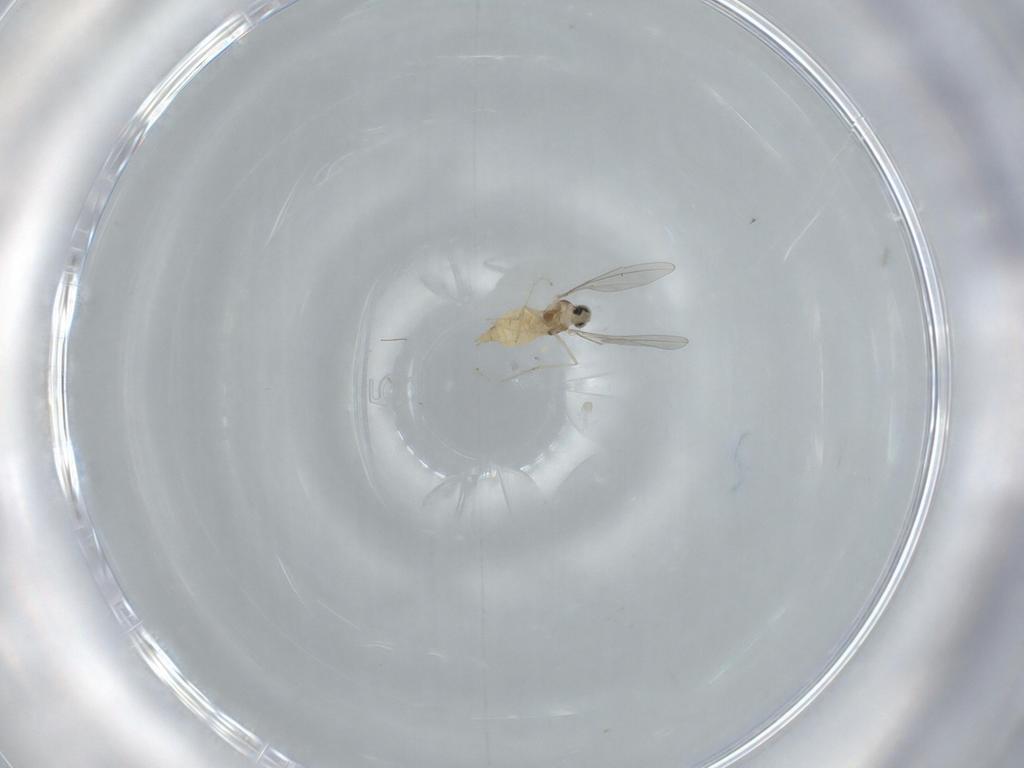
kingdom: Animalia
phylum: Arthropoda
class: Insecta
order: Diptera
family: Cecidomyiidae
